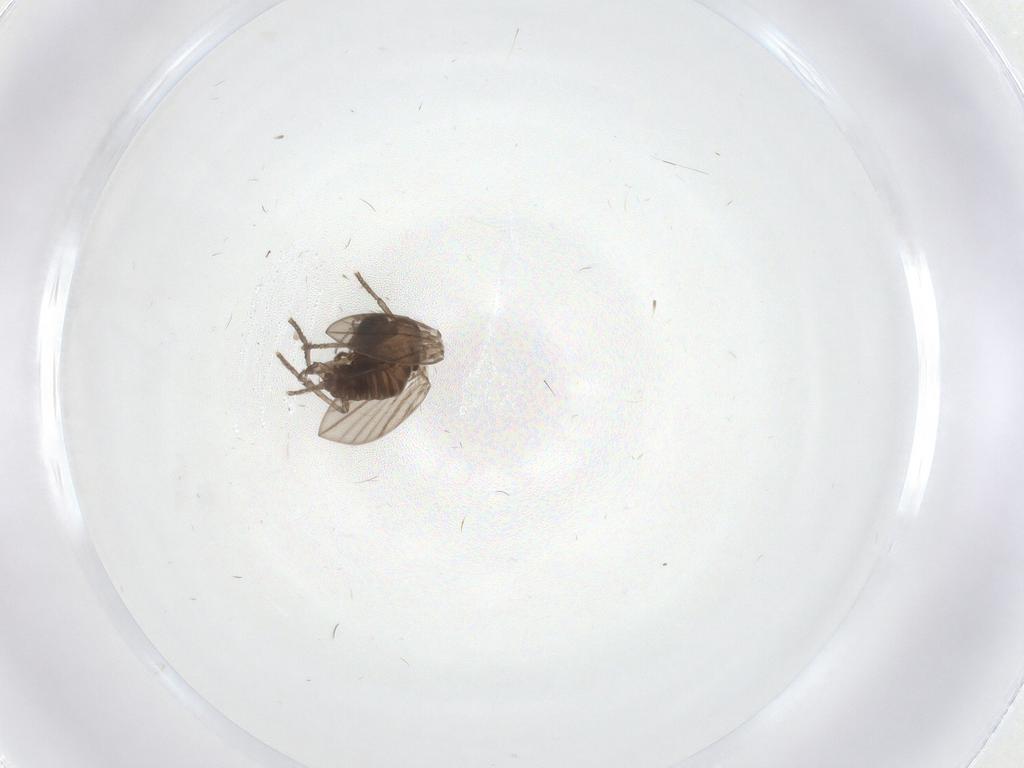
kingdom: Animalia
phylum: Arthropoda
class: Insecta
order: Diptera
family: Psychodidae
